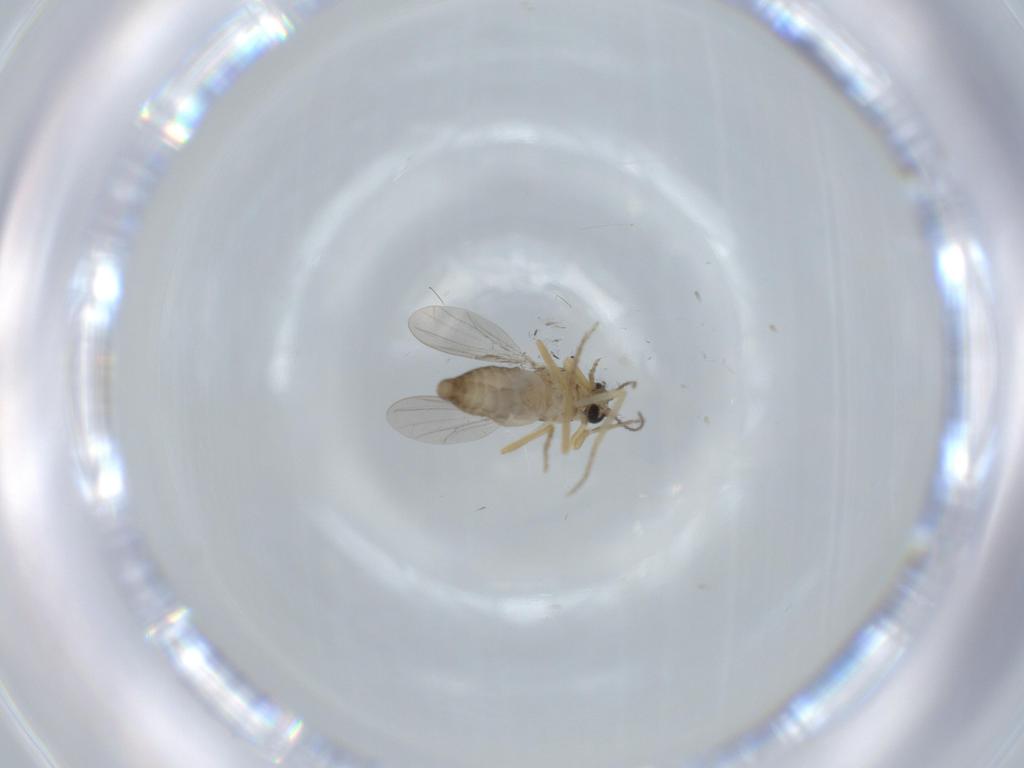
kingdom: Animalia
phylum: Arthropoda
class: Insecta
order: Diptera
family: Ceratopogonidae
